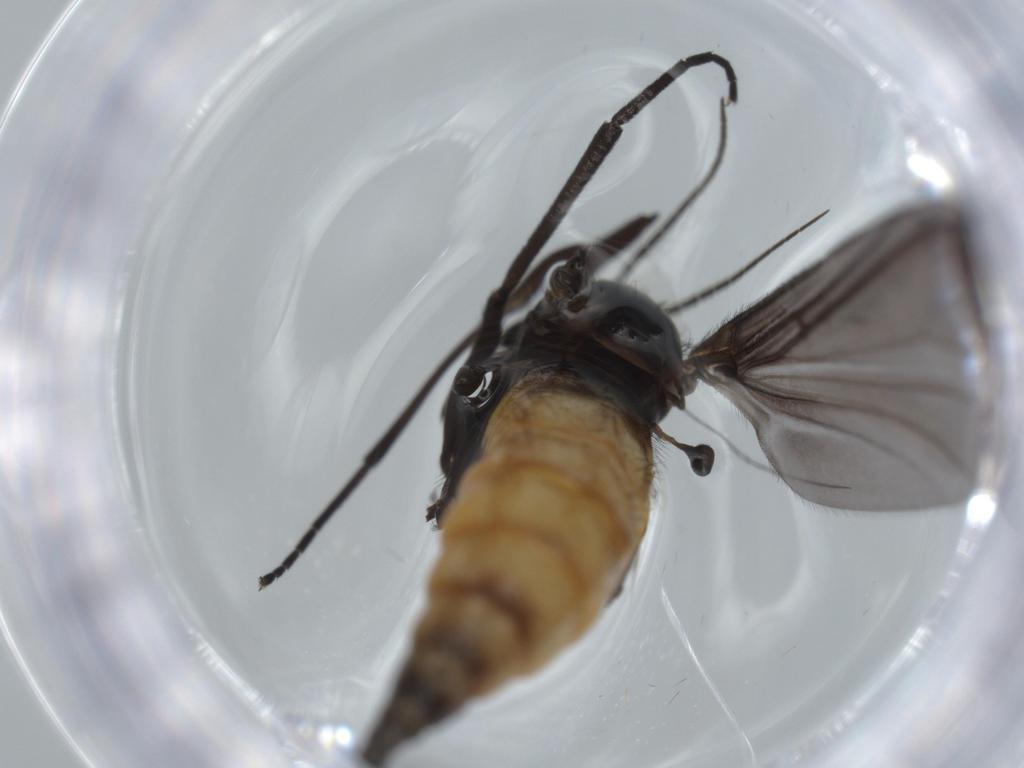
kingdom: Animalia
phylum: Arthropoda
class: Insecta
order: Diptera
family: Cecidomyiidae
